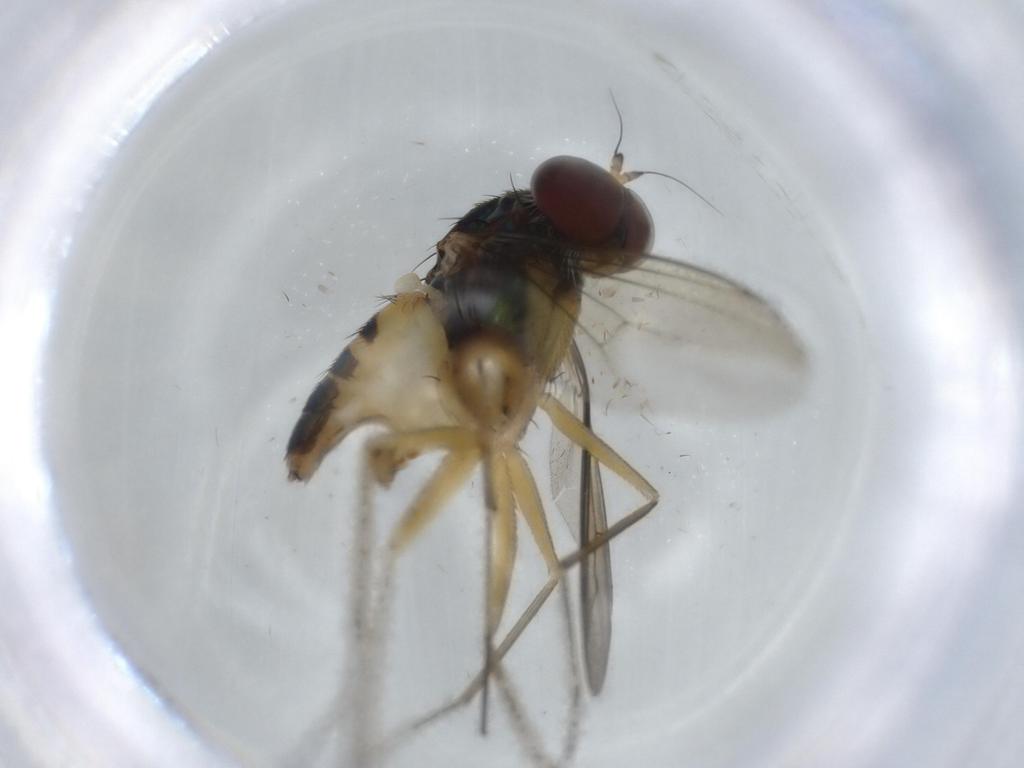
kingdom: Animalia
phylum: Arthropoda
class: Insecta
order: Diptera
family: Dolichopodidae
